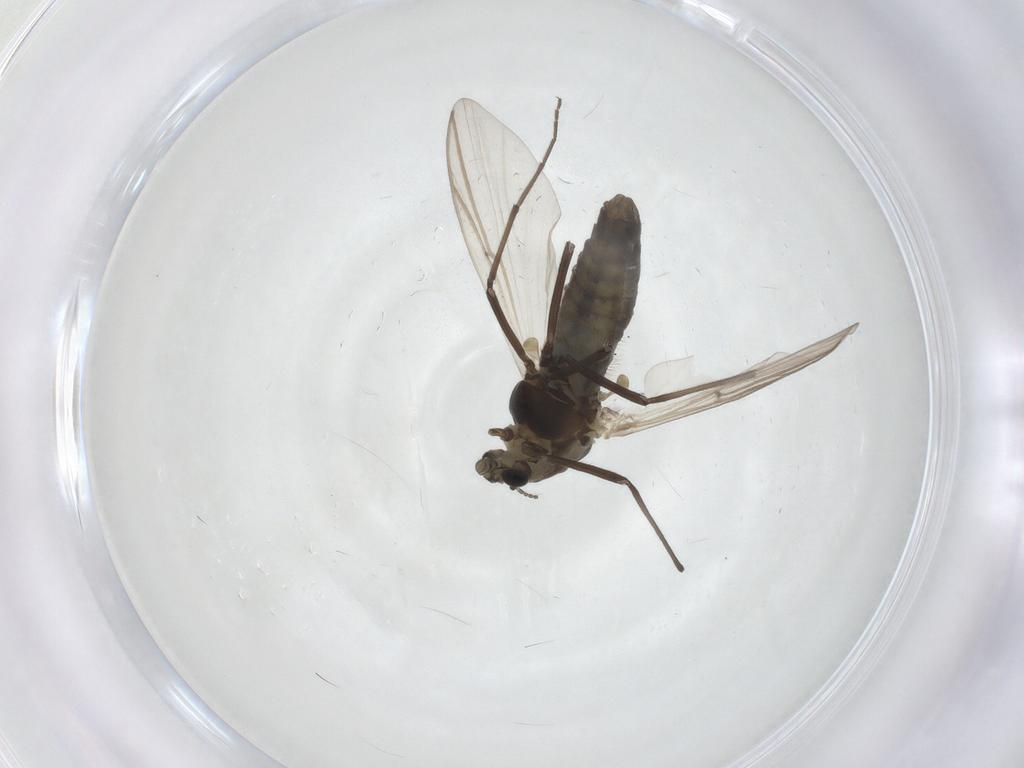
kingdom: Animalia
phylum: Arthropoda
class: Insecta
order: Diptera
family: Chironomidae
